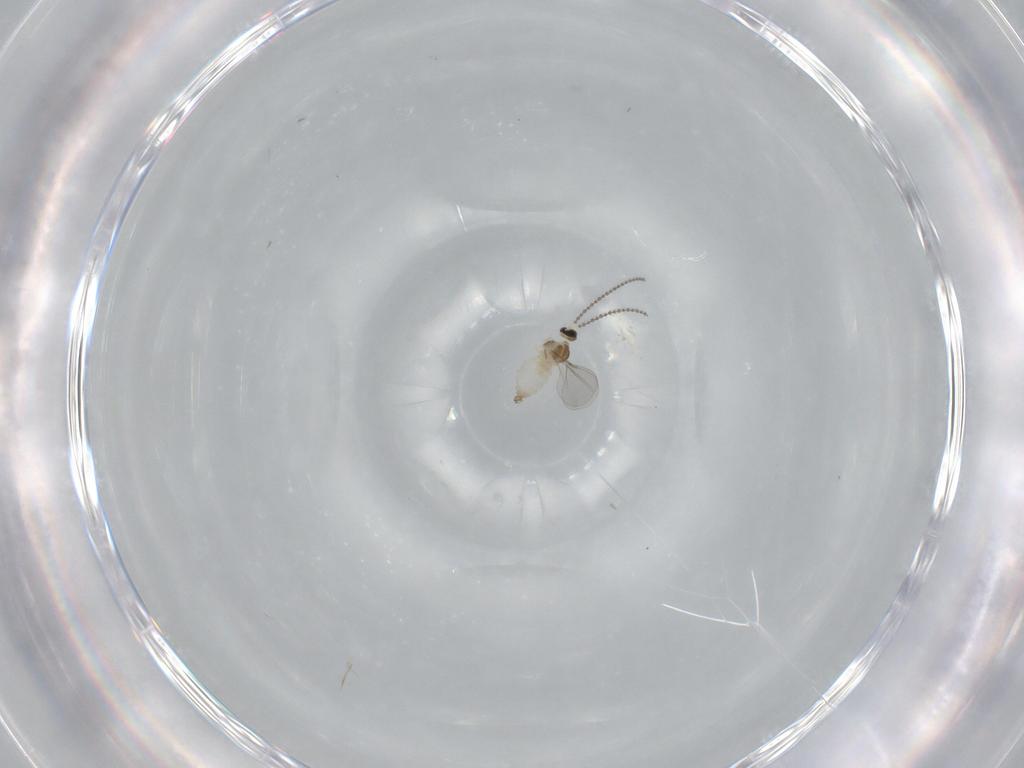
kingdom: Animalia
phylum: Arthropoda
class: Insecta
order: Diptera
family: Cecidomyiidae
